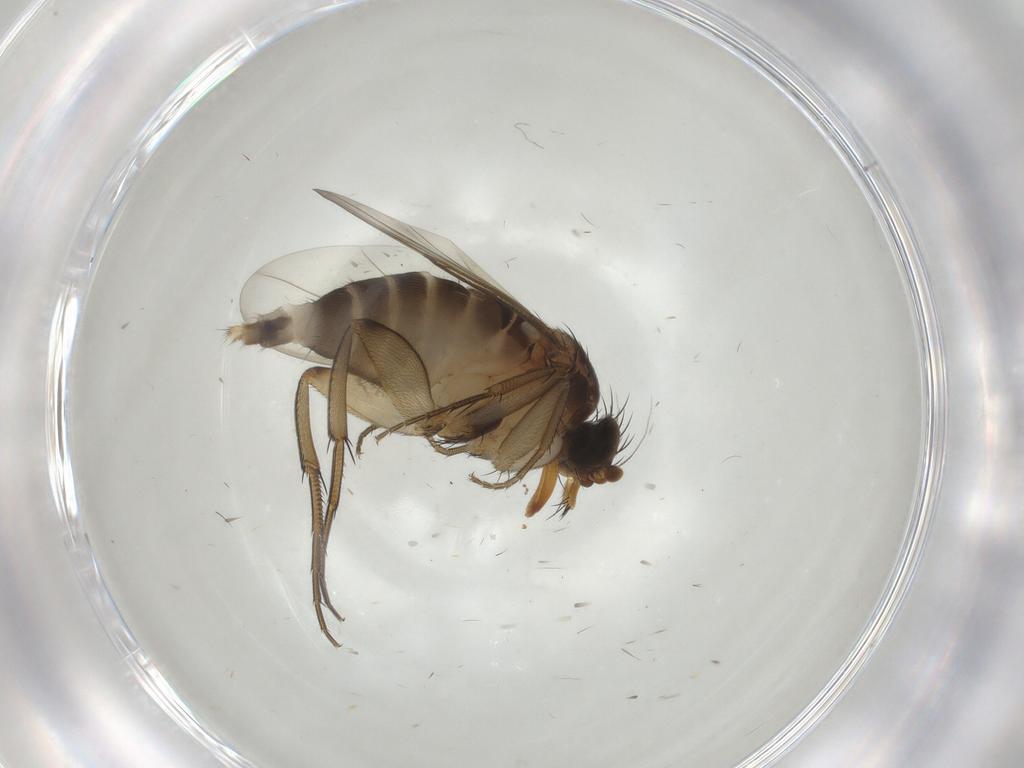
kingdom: Animalia
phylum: Arthropoda
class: Insecta
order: Diptera
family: Phoridae
